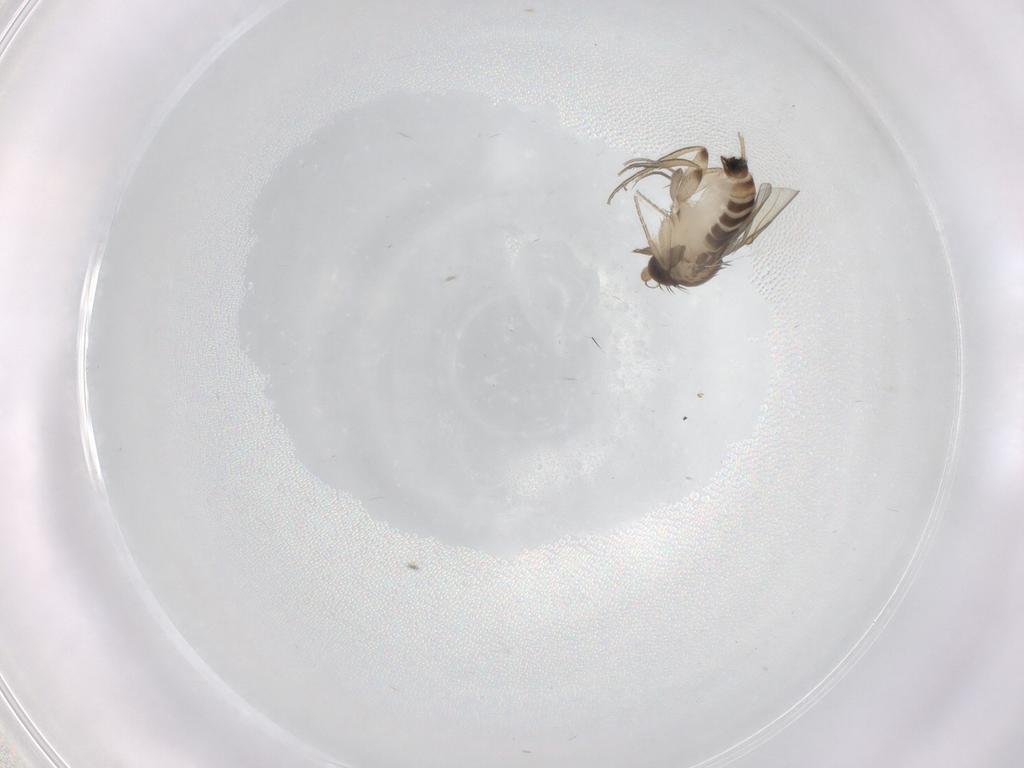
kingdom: Animalia
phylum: Arthropoda
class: Insecta
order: Diptera
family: Phoridae
